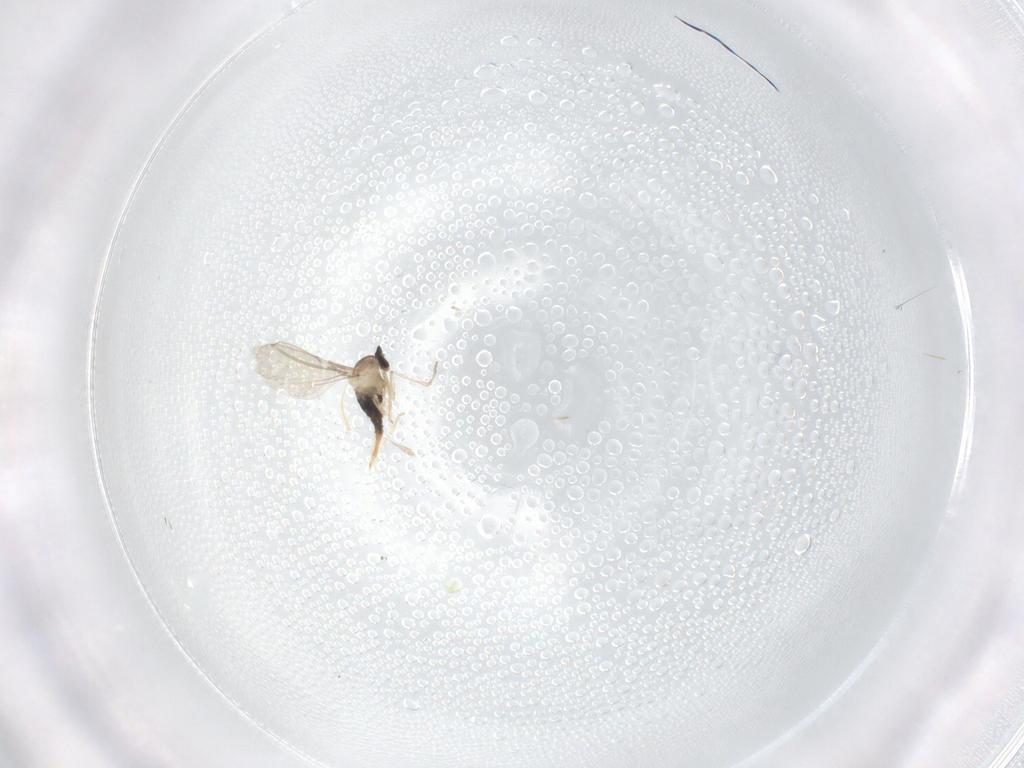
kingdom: Animalia
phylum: Arthropoda
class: Insecta
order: Diptera
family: Cecidomyiidae
